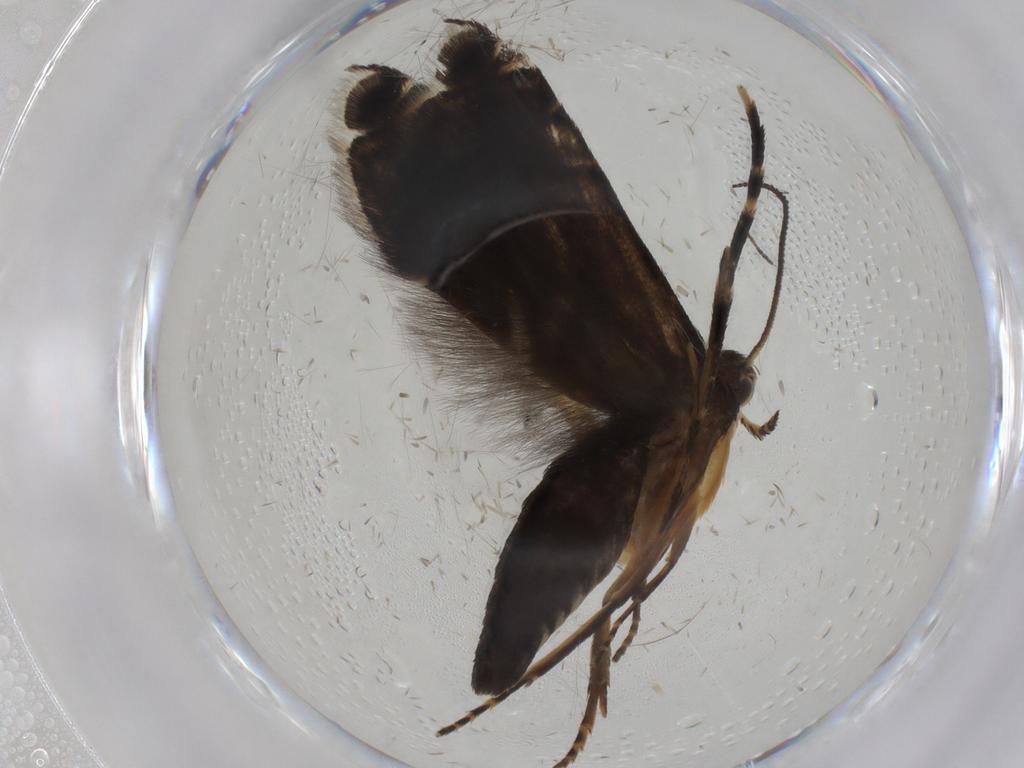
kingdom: Animalia
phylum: Arthropoda
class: Insecta
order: Lepidoptera
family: Glyphipterigidae
